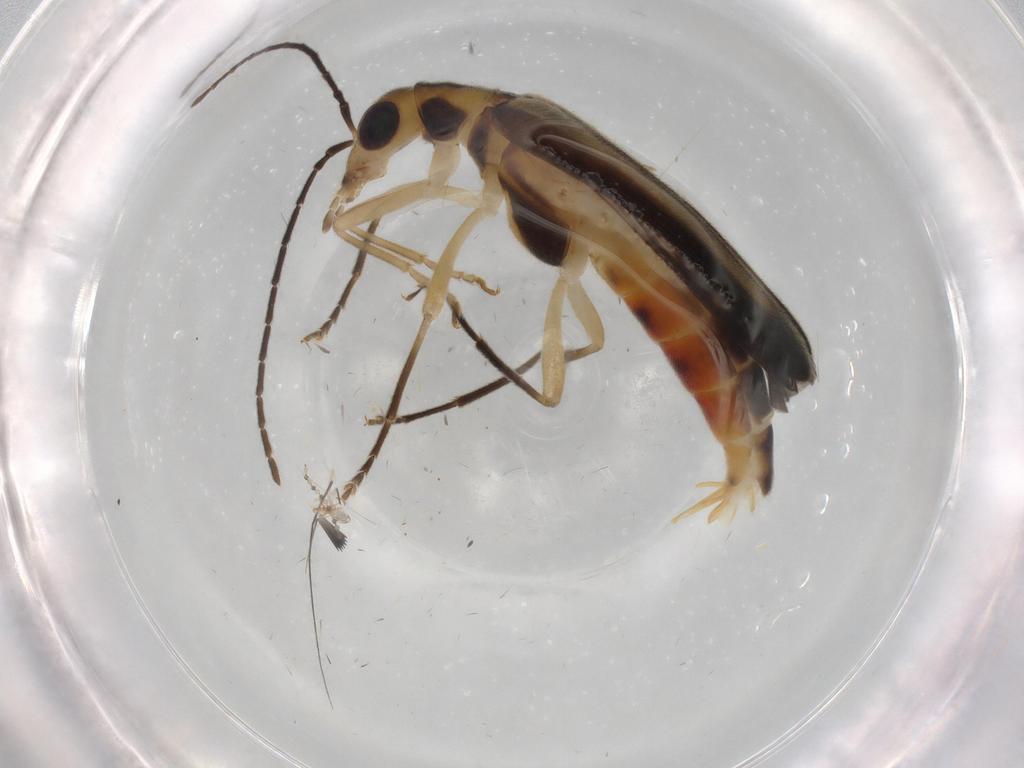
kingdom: Animalia
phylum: Arthropoda
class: Insecta
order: Coleoptera
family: Oedemeridae
